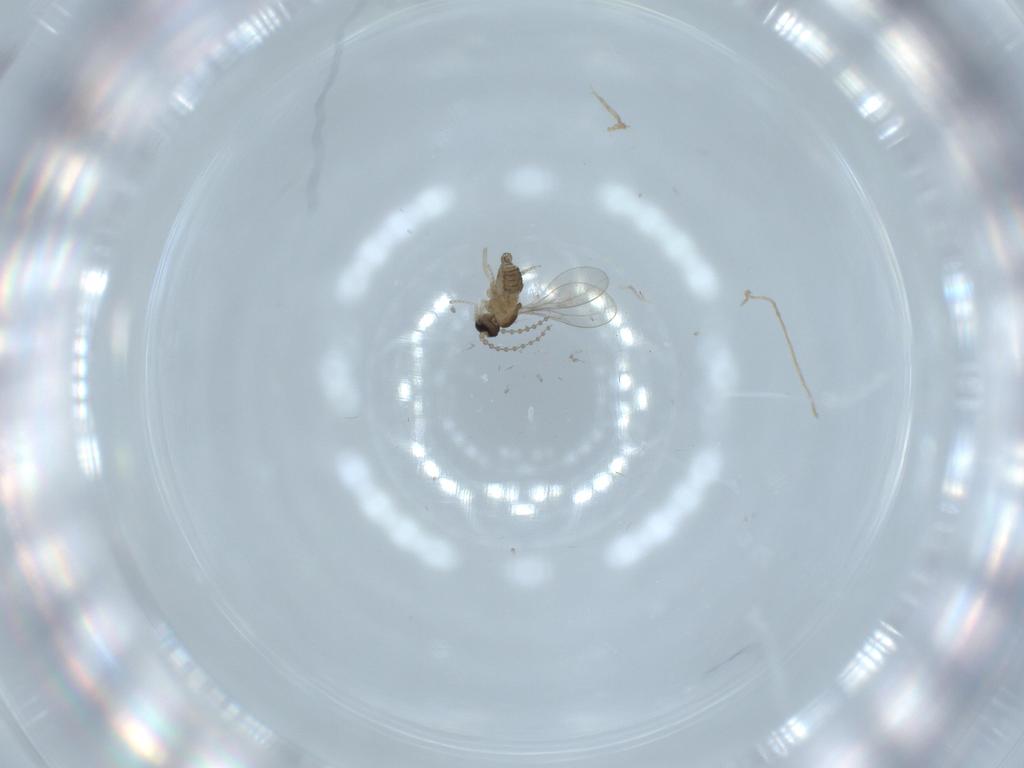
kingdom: Animalia
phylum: Arthropoda
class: Insecta
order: Diptera
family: Cecidomyiidae
